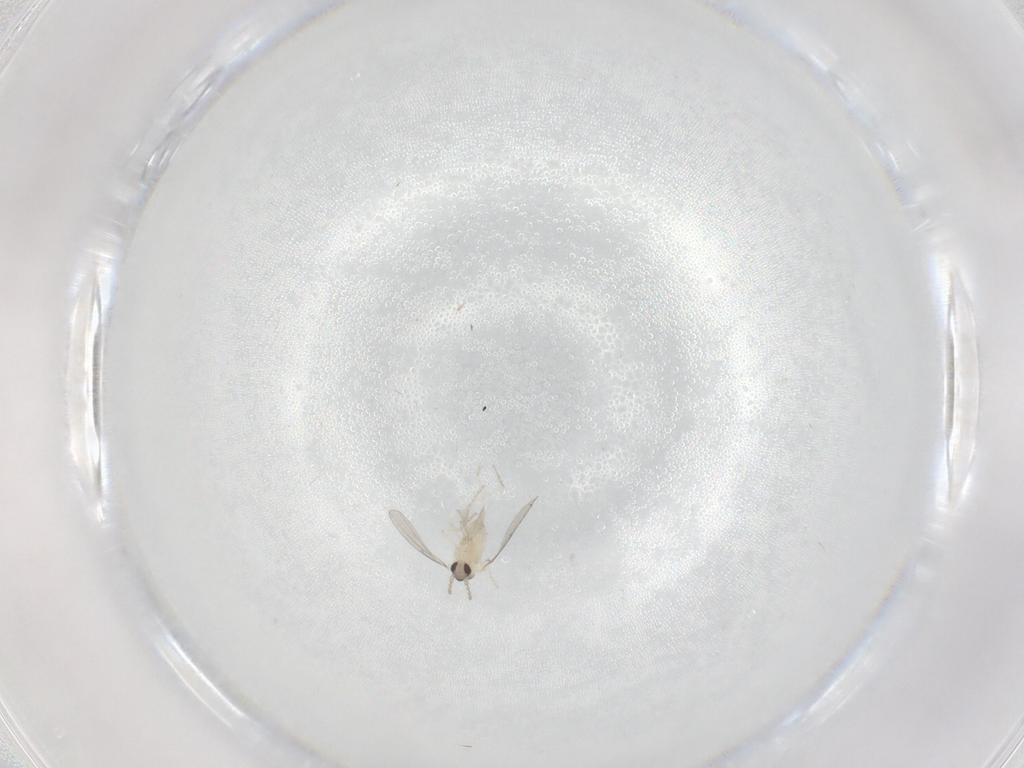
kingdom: Animalia
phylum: Arthropoda
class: Insecta
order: Diptera
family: Cecidomyiidae
